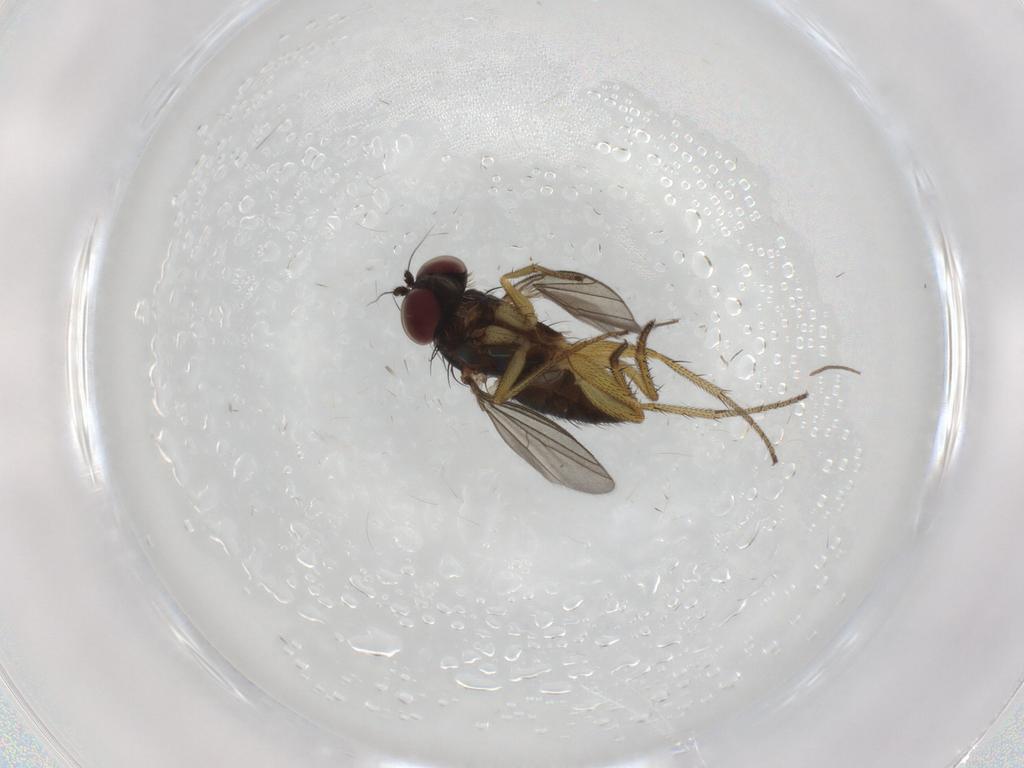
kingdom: Animalia
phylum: Arthropoda
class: Insecta
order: Diptera
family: Chironomidae
